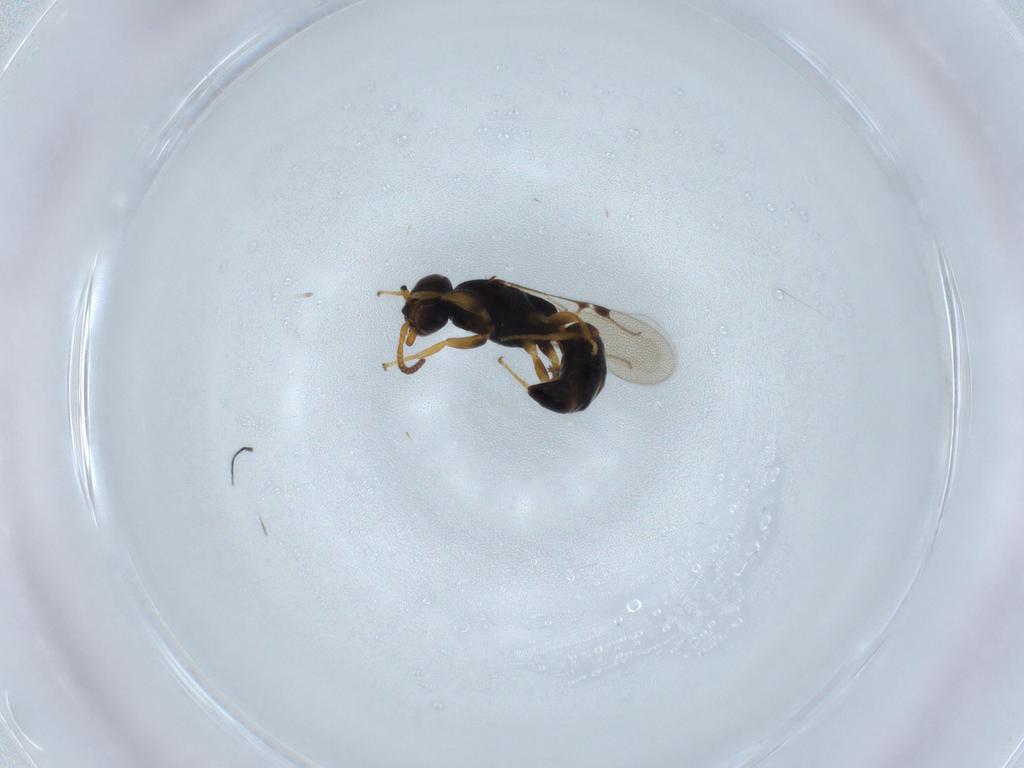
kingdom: Animalia
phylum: Arthropoda
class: Insecta
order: Hymenoptera
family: Bethylidae
